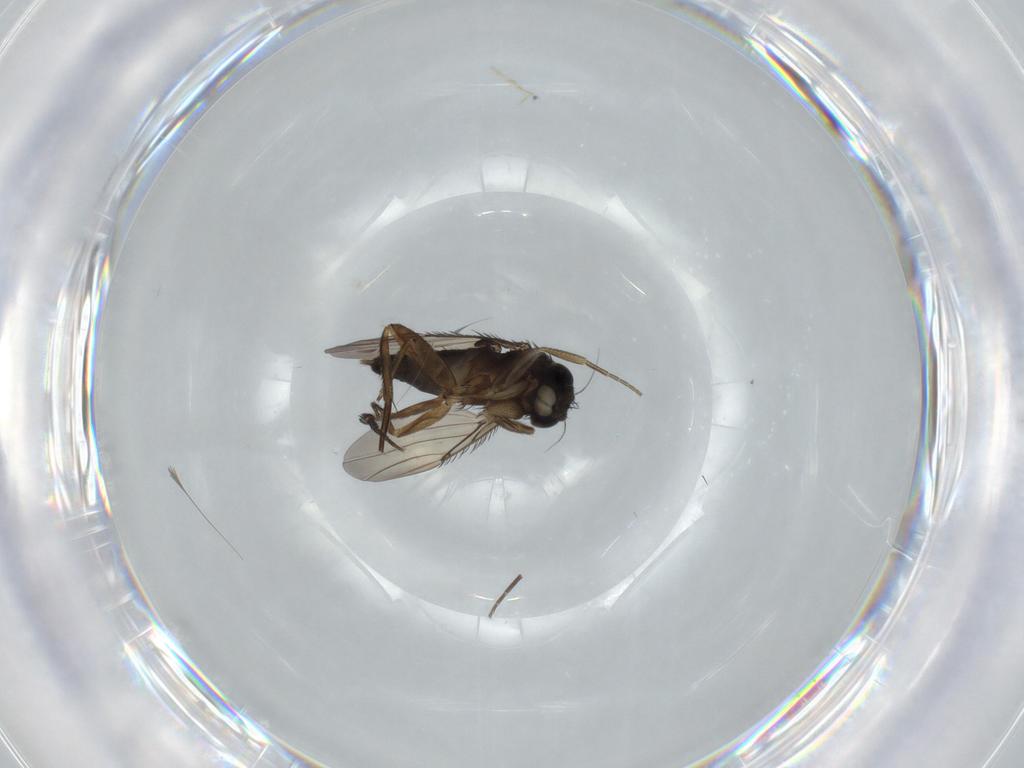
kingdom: Animalia
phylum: Arthropoda
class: Insecta
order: Diptera
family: Phoridae
